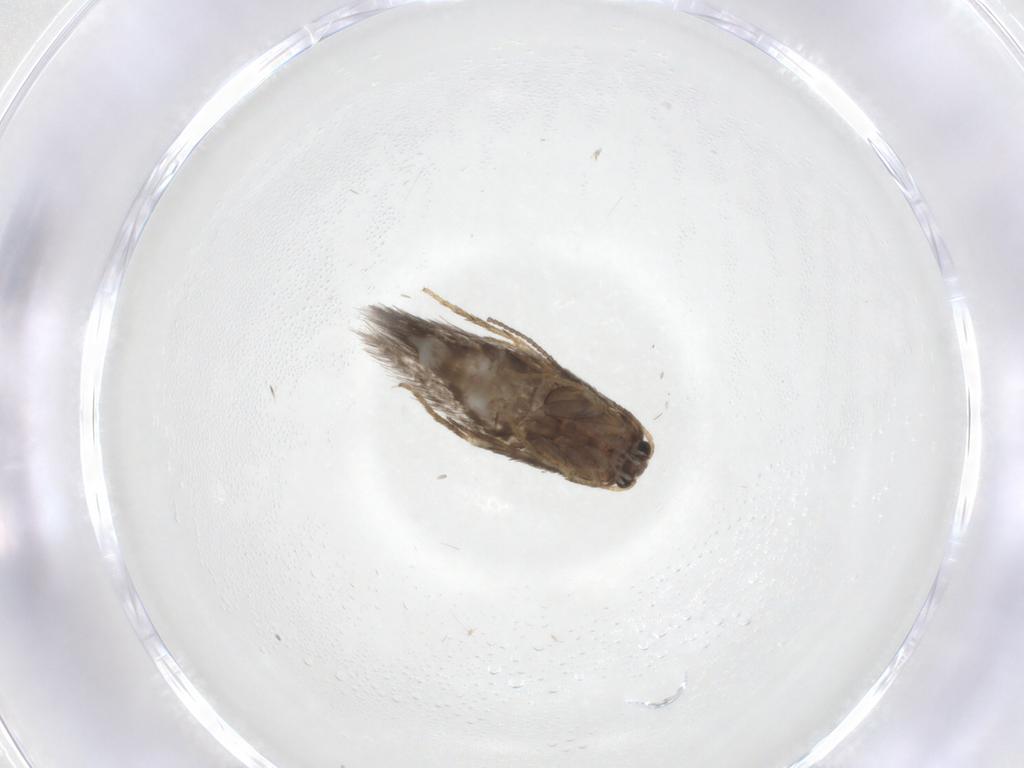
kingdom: Animalia
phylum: Arthropoda
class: Insecta
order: Lepidoptera
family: Nepticulidae
